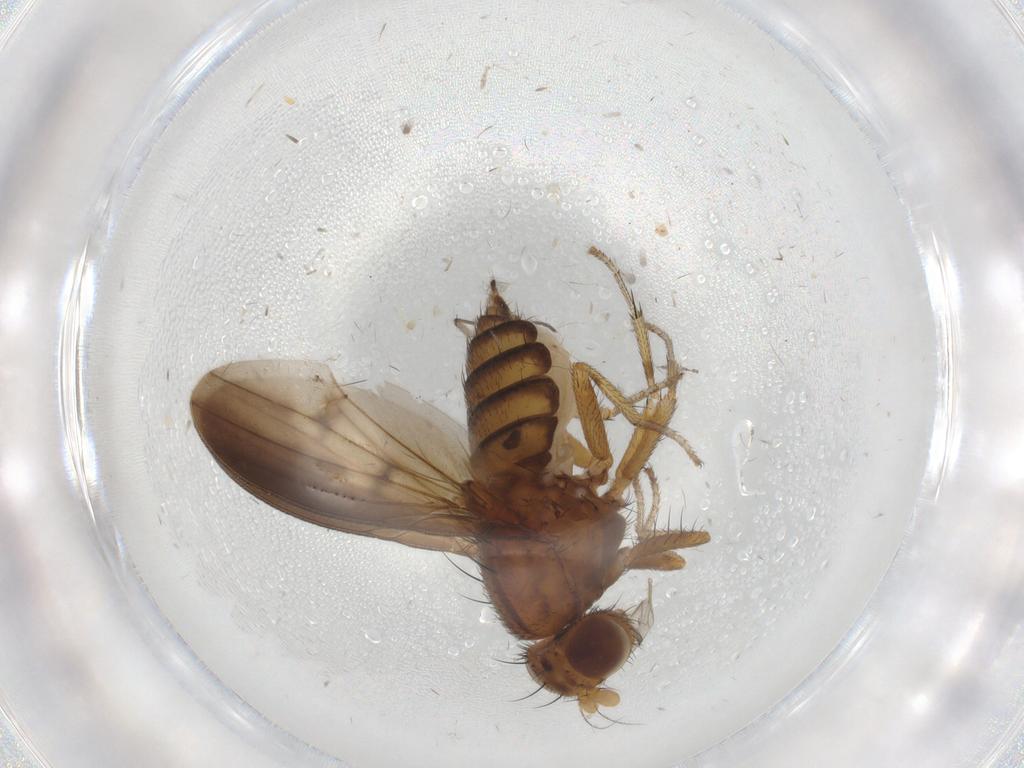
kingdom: Animalia
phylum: Arthropoda
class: Insecta
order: Diptera
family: Lauxaniidae
